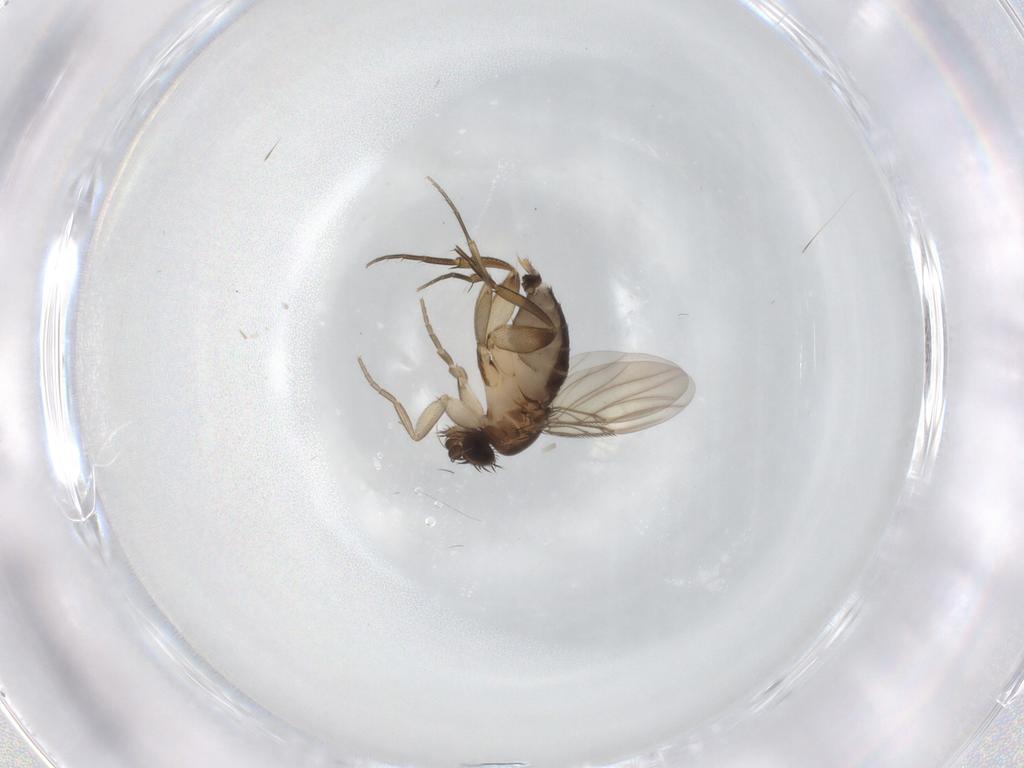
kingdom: Animalia
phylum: Arthropoda
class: Insecta
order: Diptera
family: Phoridae
